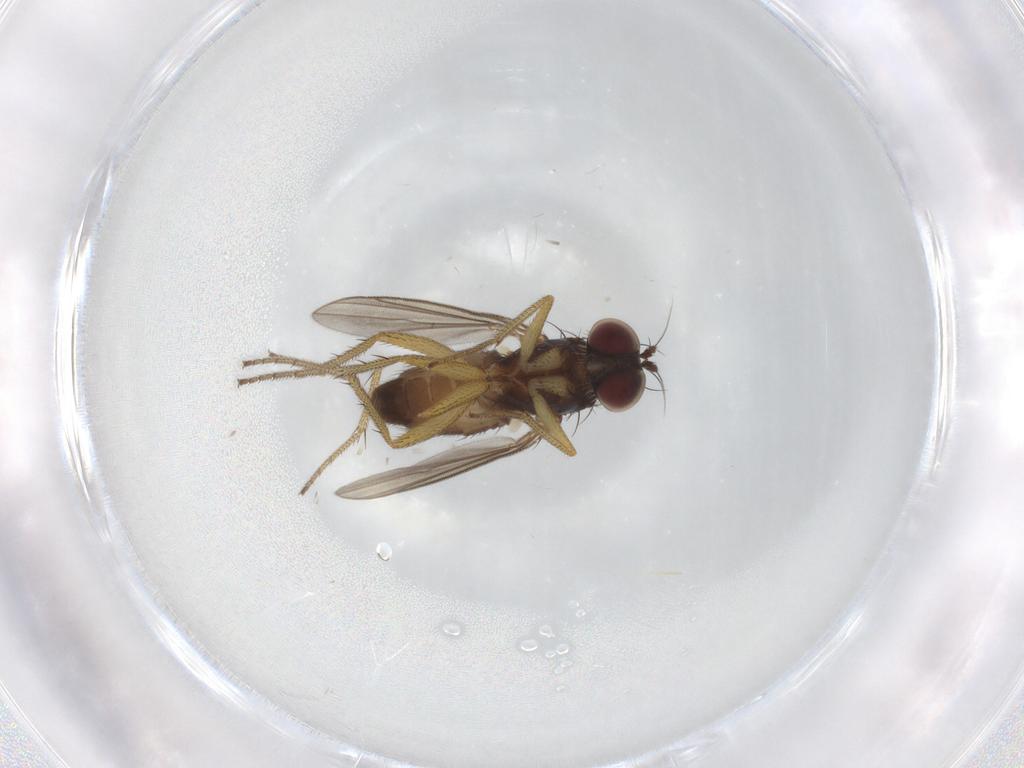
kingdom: Animalia
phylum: Arthropoda
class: Insecta
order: Diptera
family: Dolichopodidae
